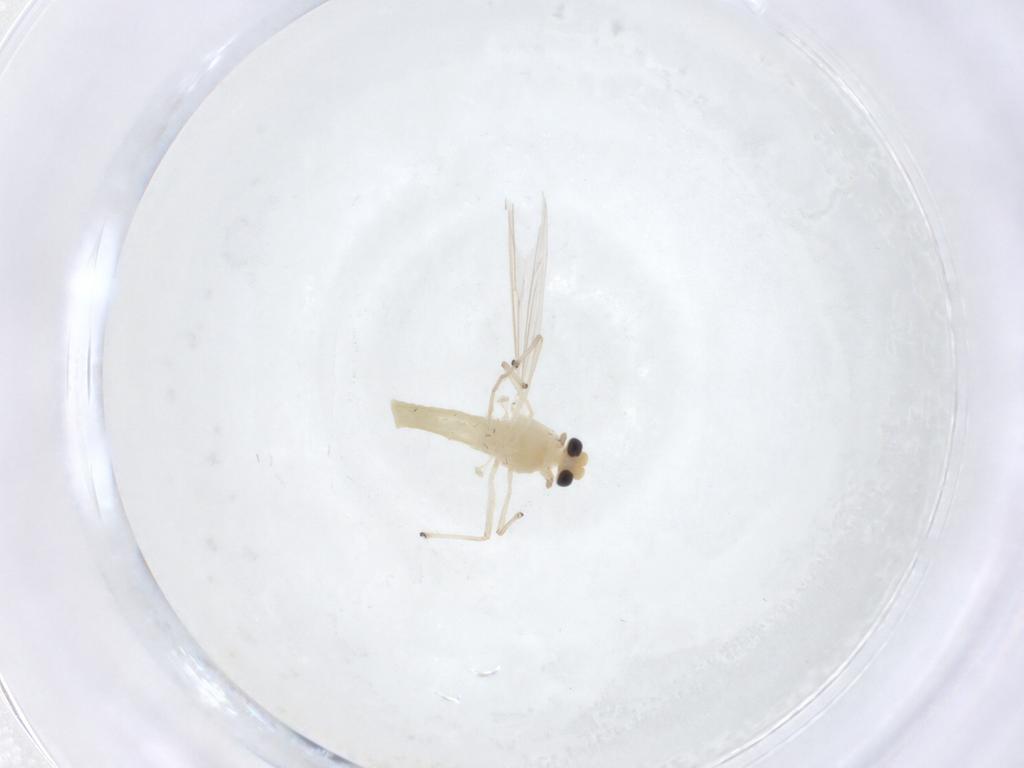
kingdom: Animalia
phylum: Arthropoda
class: Insecta
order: Diptera
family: Chironomidae
